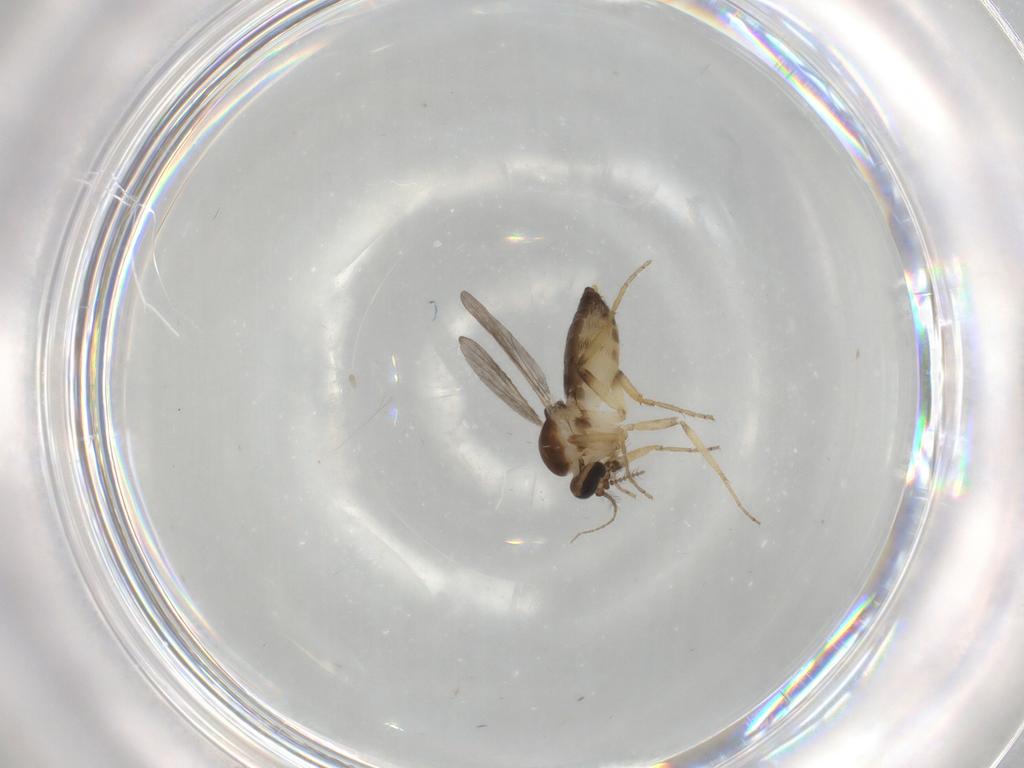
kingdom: Animalia
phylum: Arthropoda
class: Insecta
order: Diptera
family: Ceratopogonidae
